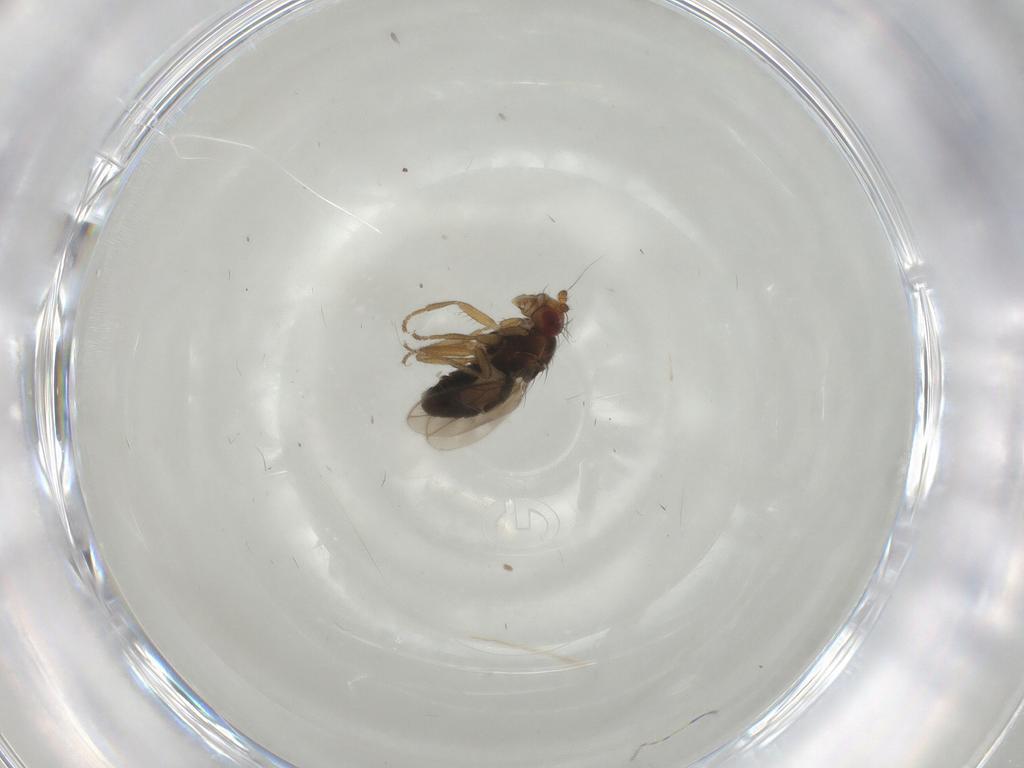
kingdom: Animalia
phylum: Arthropoda
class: Insecta
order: Diptera
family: Sphaeroceridae
